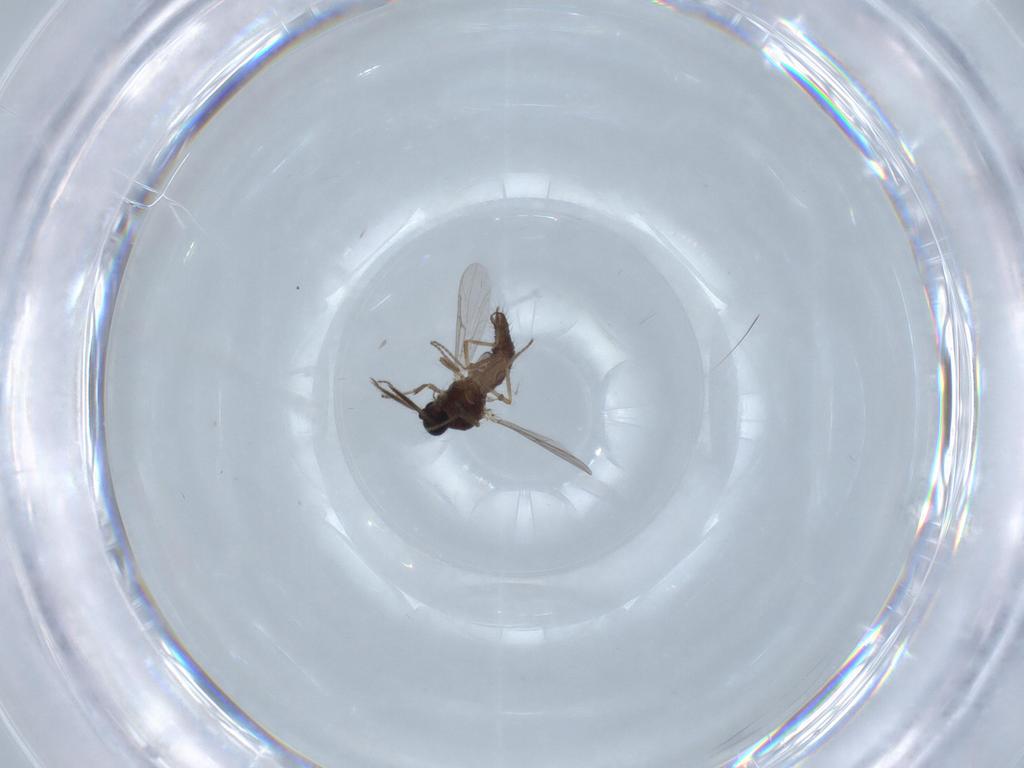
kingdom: Animalia
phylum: Arthropoda
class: Insecta
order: Diptera
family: Ceratopogonidae
